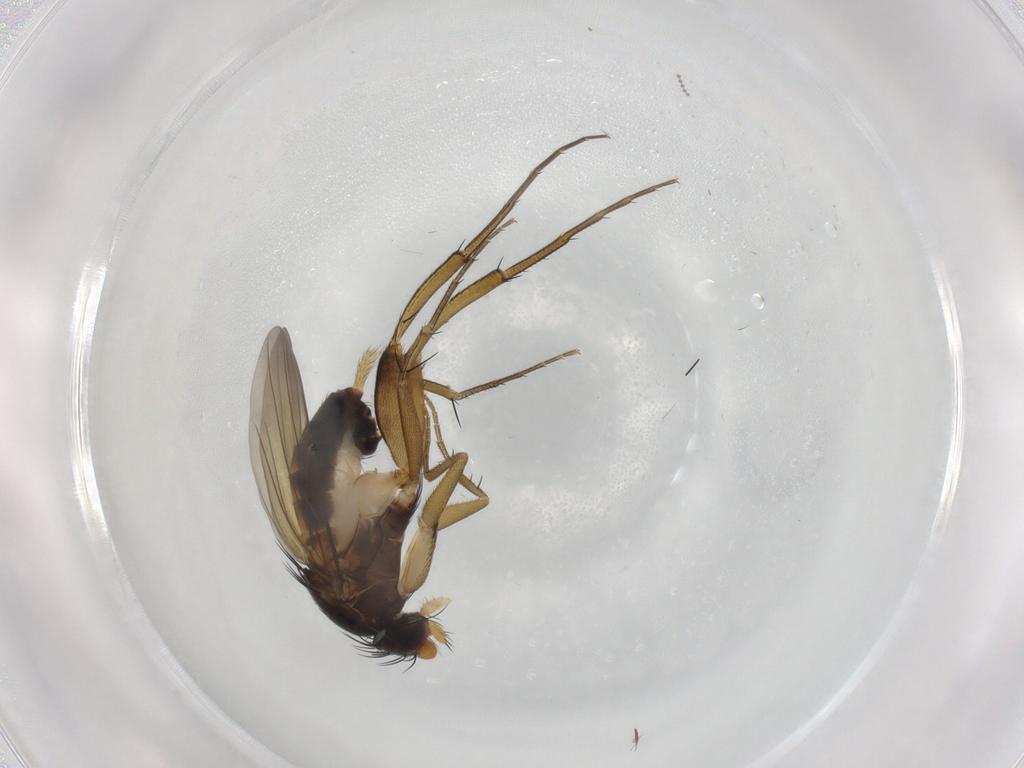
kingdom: Animalia
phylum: Arthropoda
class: Insecta
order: Diptera
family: Phoridae
